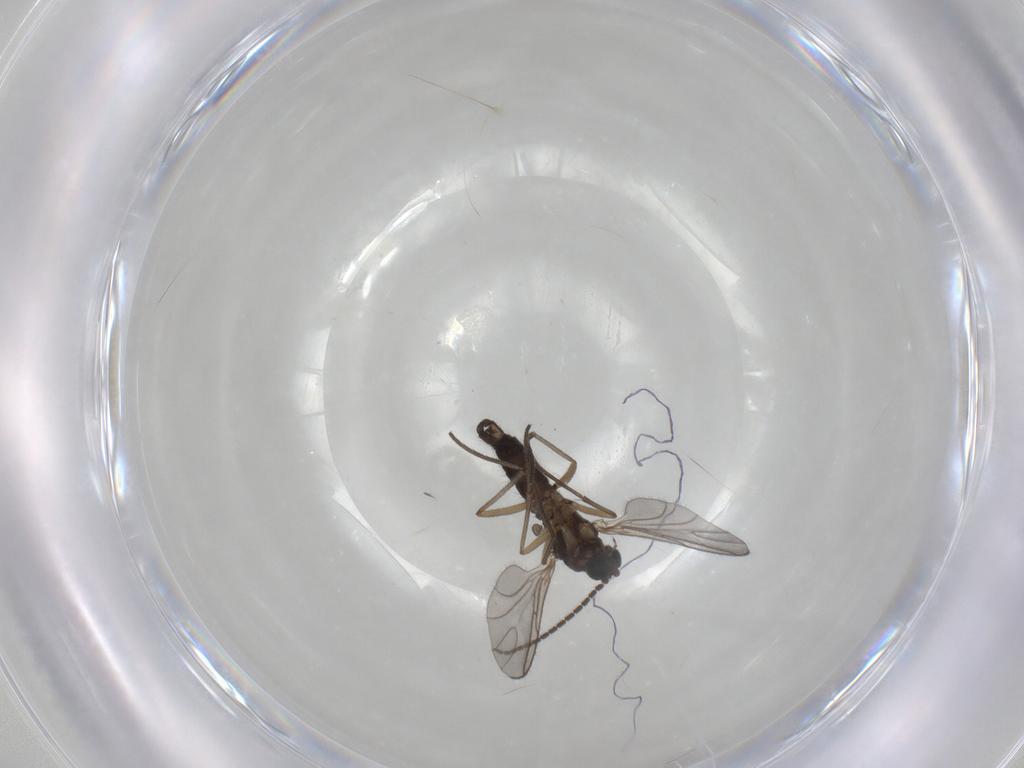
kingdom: Animalia
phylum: Arthropoda
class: Insecta
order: Diptera
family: Sciaridae
